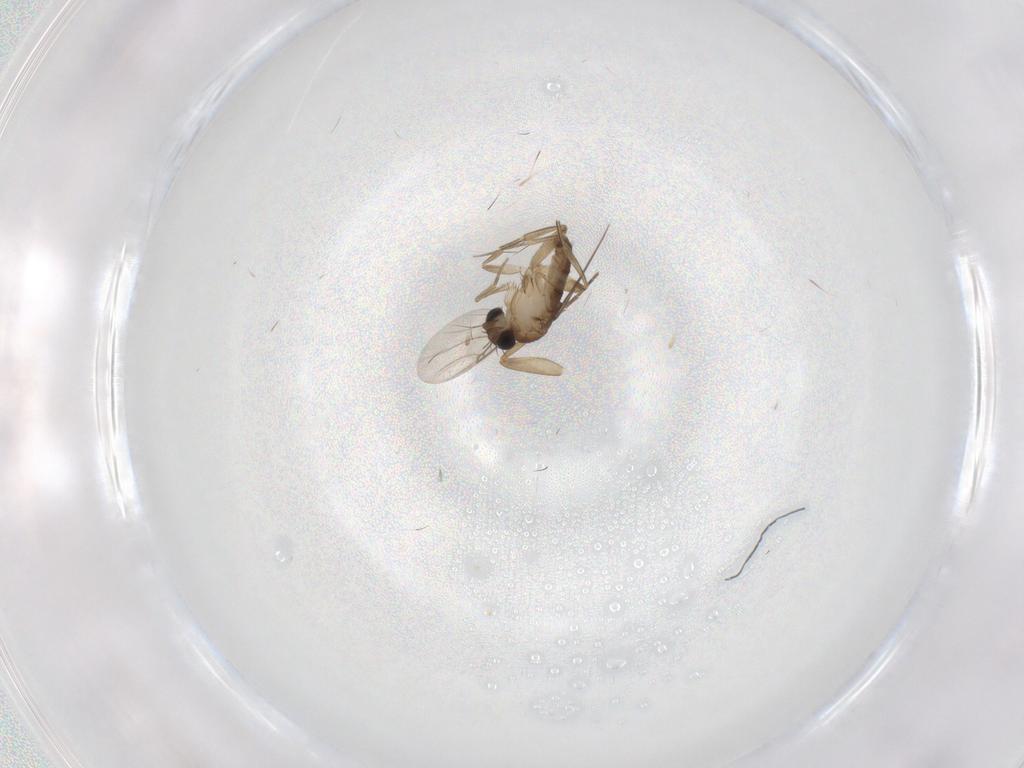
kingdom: Animalia
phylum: Arthropoda
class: Insecta
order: Diptera
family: Phoridae
